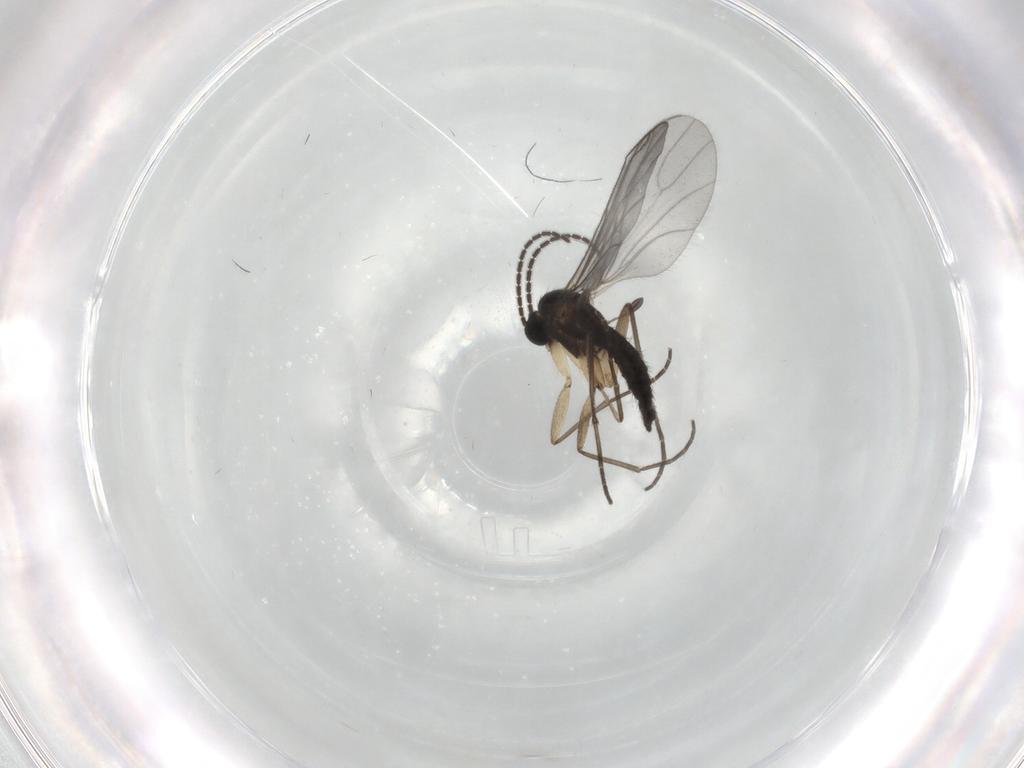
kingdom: Animalia
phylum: Arthropoda
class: Insecta
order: Diptera
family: Sciaridae
